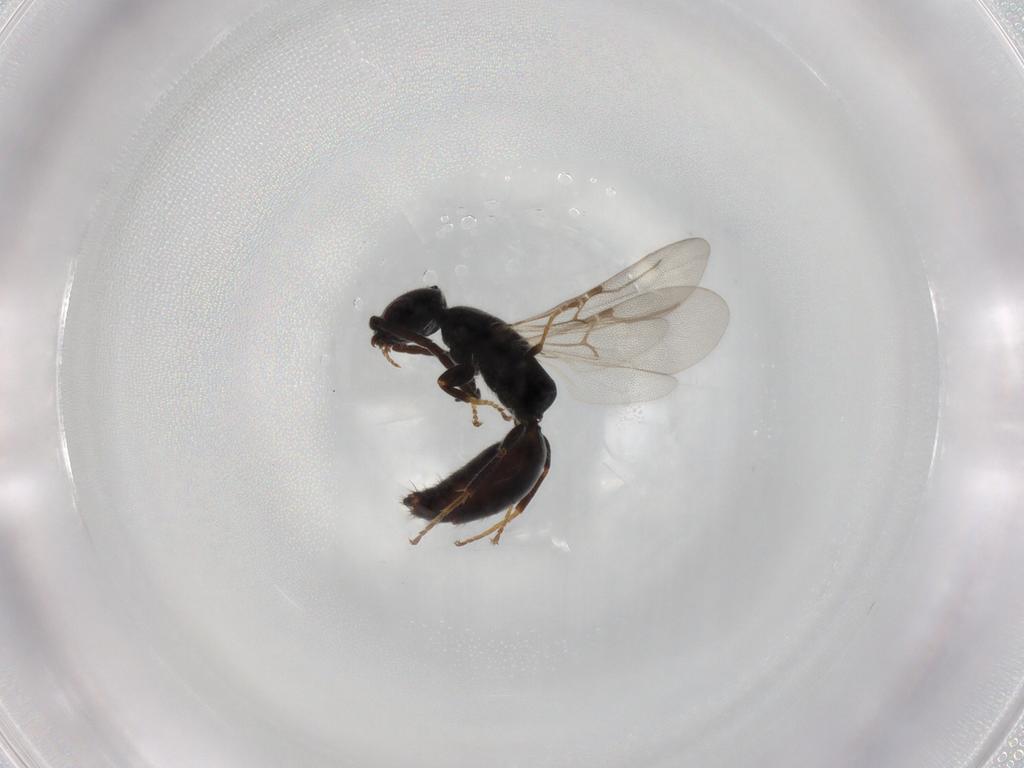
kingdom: Animalia
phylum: Arthropoda
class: Insecta
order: Hymenoptera
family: Bethylidae
